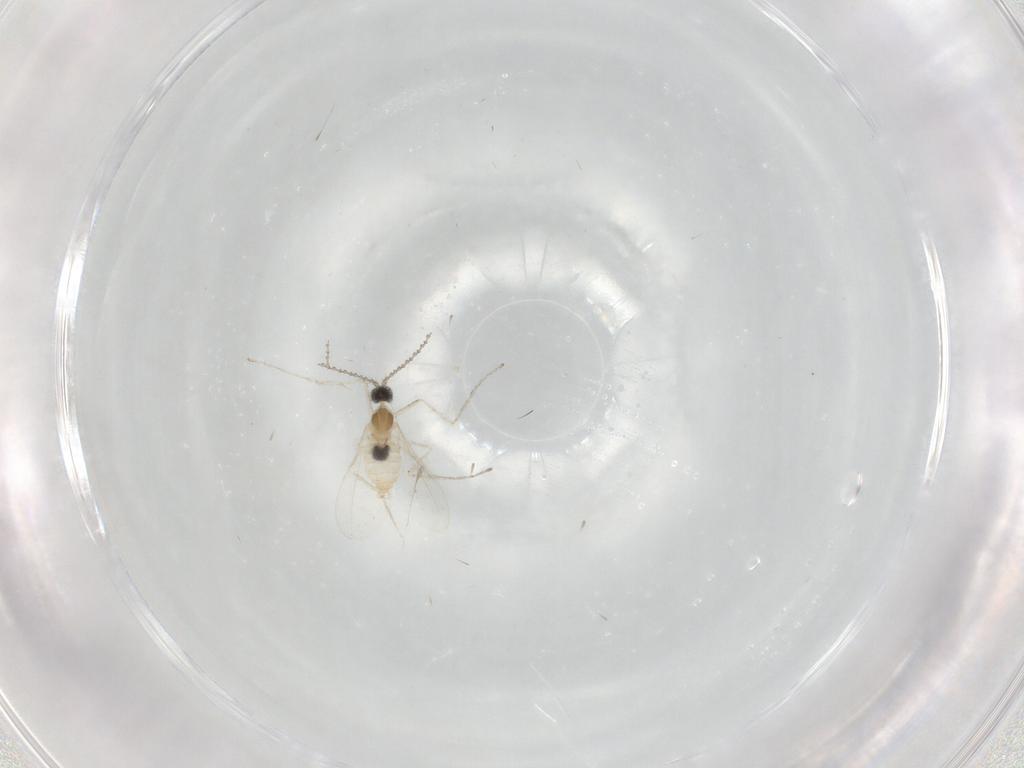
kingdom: Animalia
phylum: Arthropoda
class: Insecta
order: Diptera
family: Cecidomyiidae
